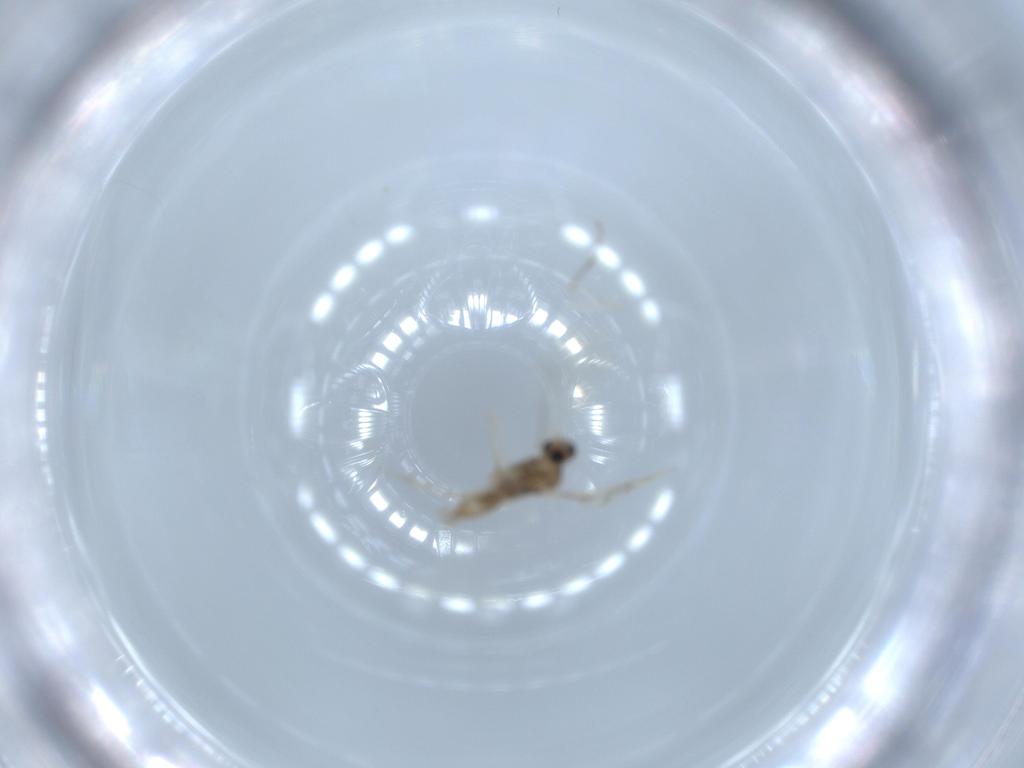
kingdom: Animalia
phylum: Arthropoda
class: Insecta
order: Diptera
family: Cecidomyiidae
